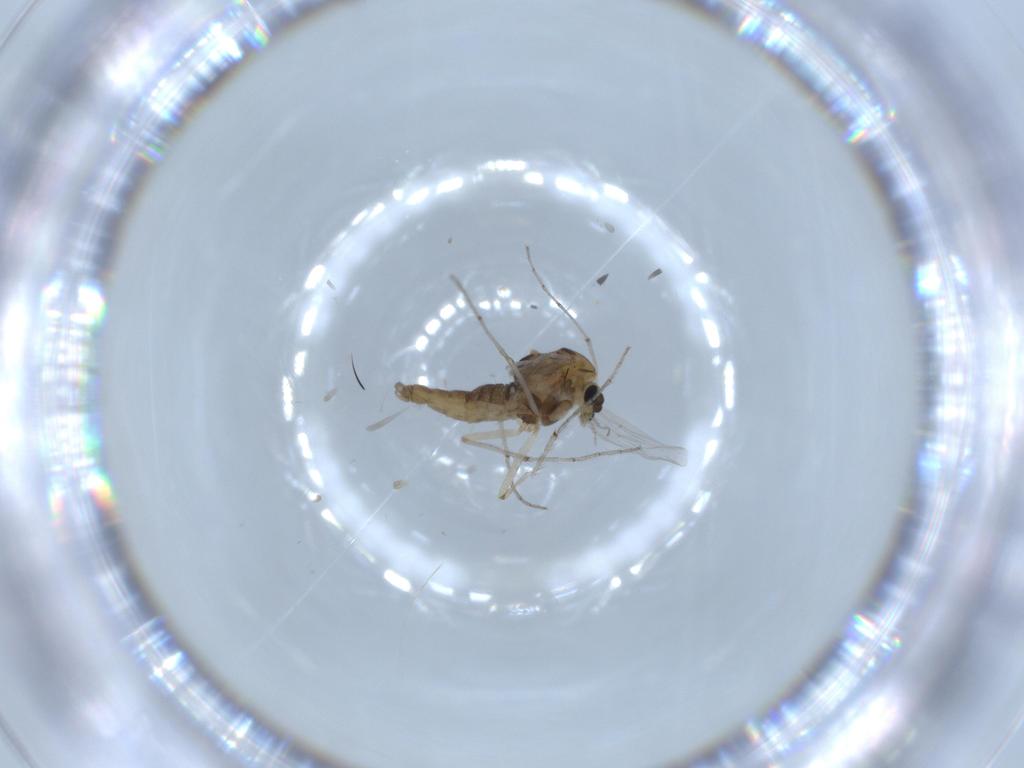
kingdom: Animalia
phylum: Arthropoda
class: Insecta
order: Diptera
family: Chironomidae
